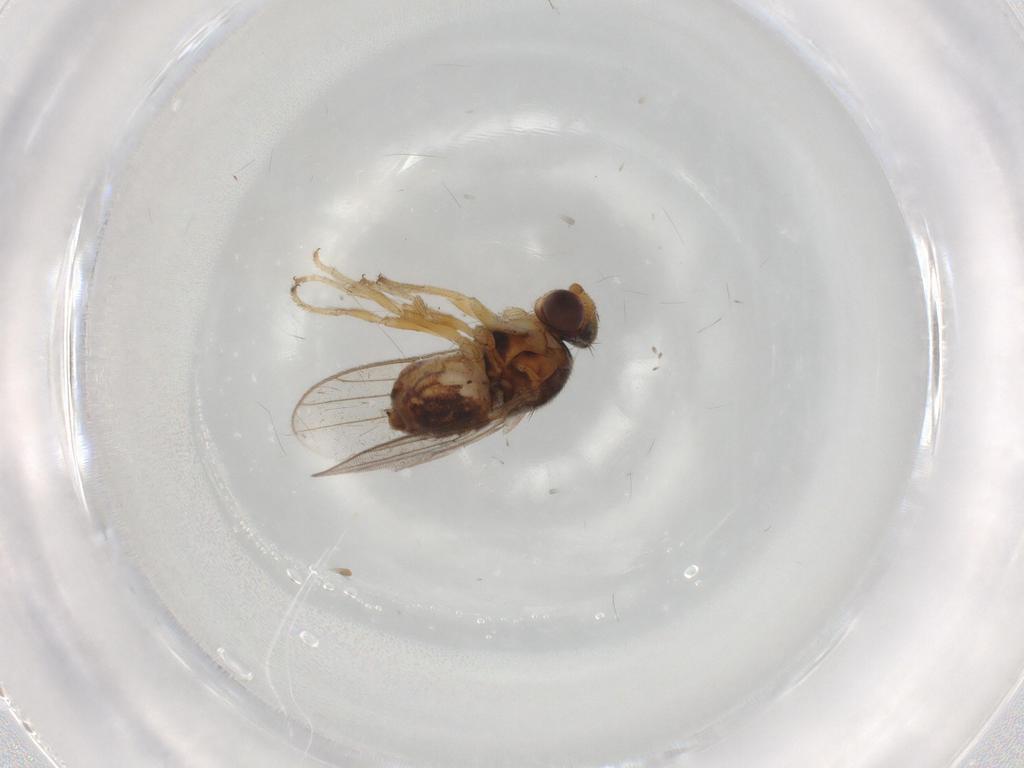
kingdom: Animalia
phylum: Arthropoda
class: Insecta
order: Diptera
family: Chloropidae
